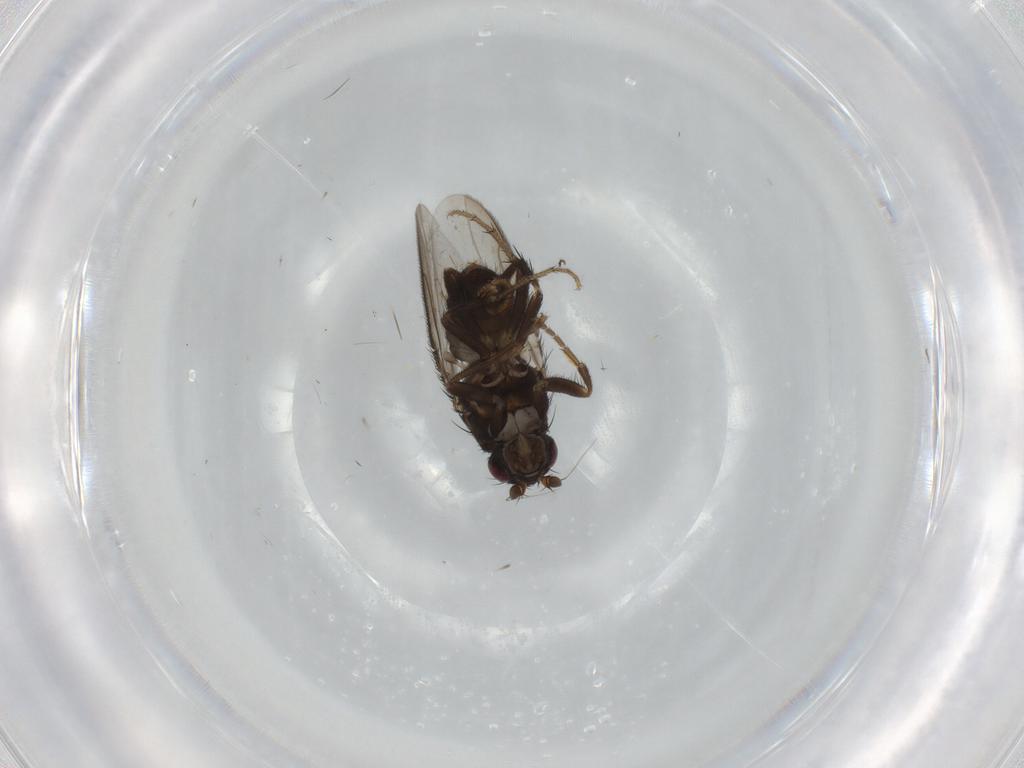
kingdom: Animalia
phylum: Arthropoda
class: Insecta
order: Diptera
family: Sphaeroceridae
